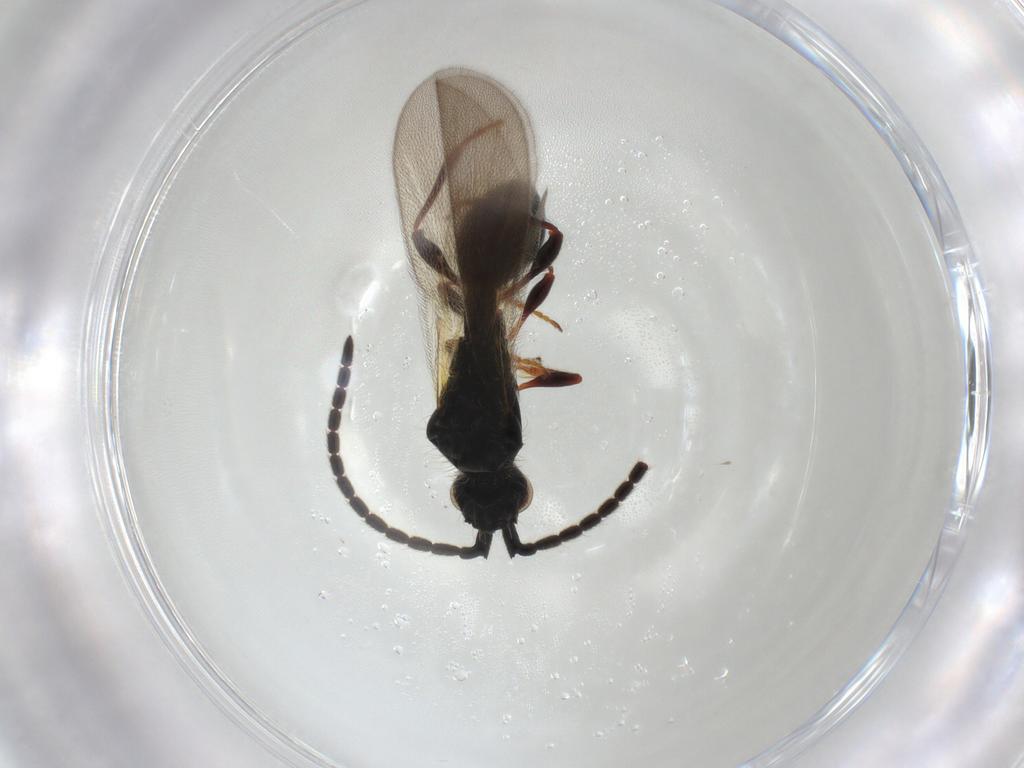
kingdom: Animalia
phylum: Arthropoda
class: Insecta
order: Hymenoptera
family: Diapriidae
